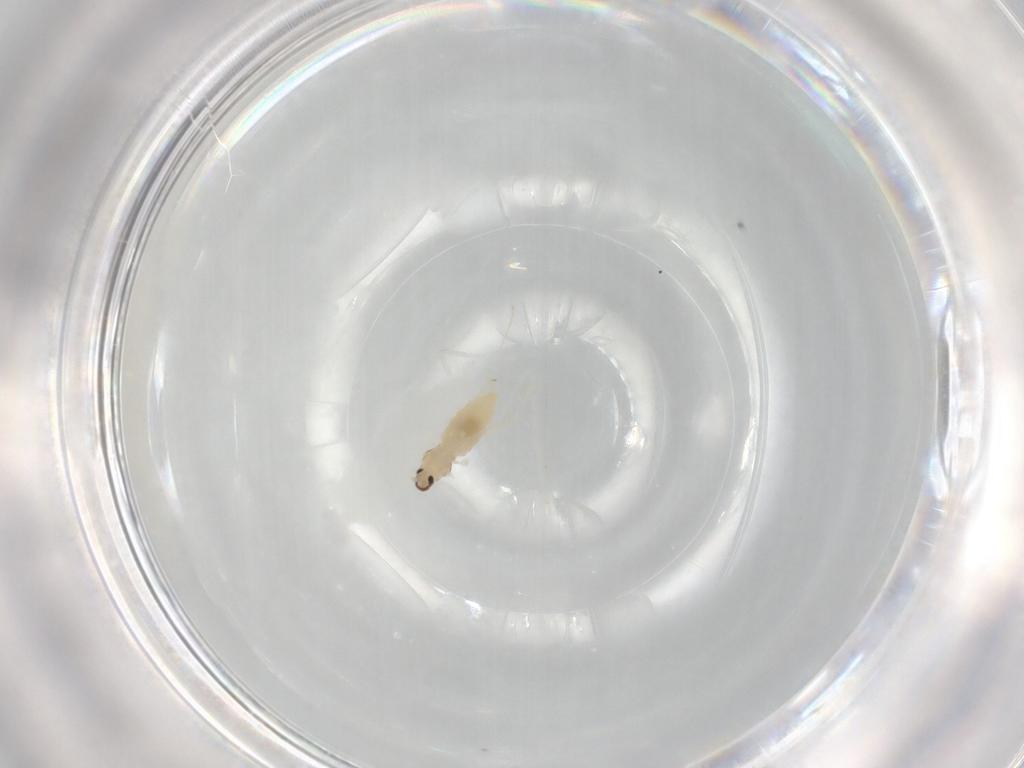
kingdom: Animalia
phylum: Arthropoda
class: Insecta
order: Diptera
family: Cecidomyiidae
